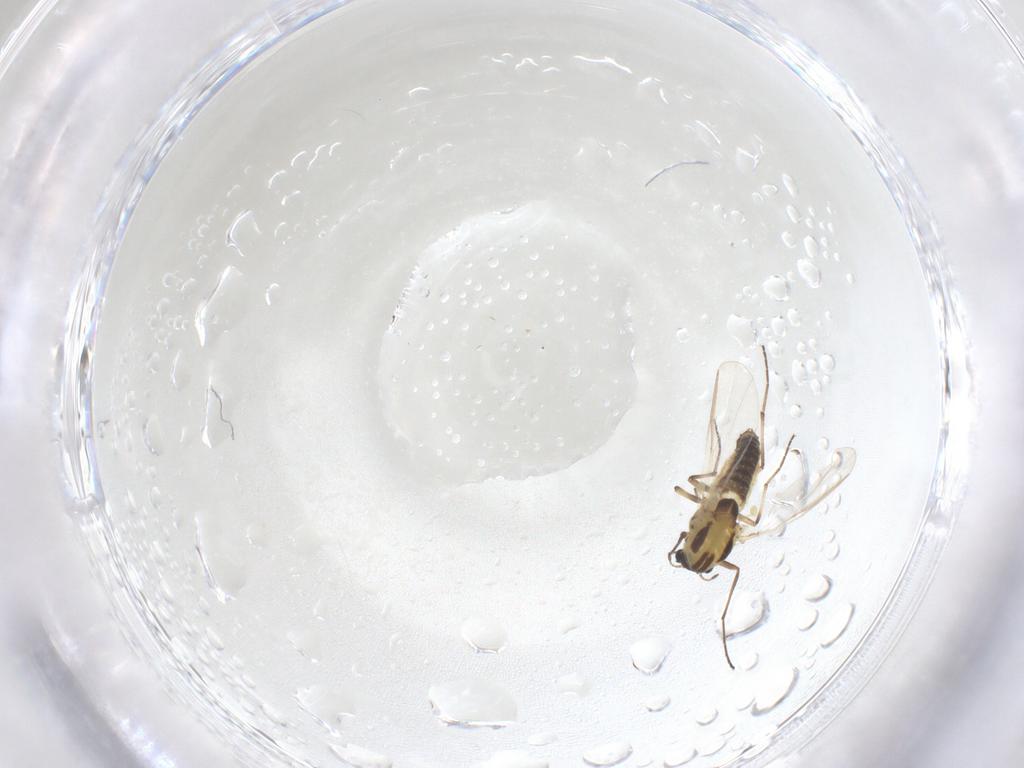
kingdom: Animalia
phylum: Arthropoda
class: Insecta
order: Diptera
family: Chironomidae
